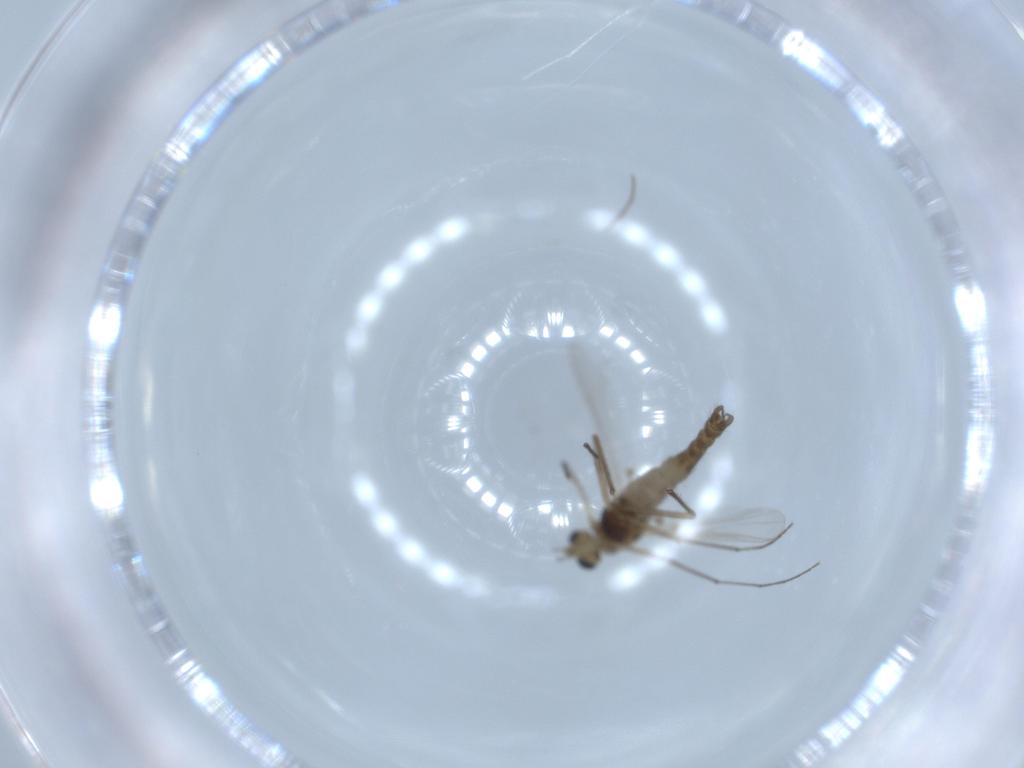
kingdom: Animalia
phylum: Arthropoda
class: Insecta
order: Diptera
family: Chironomidae
